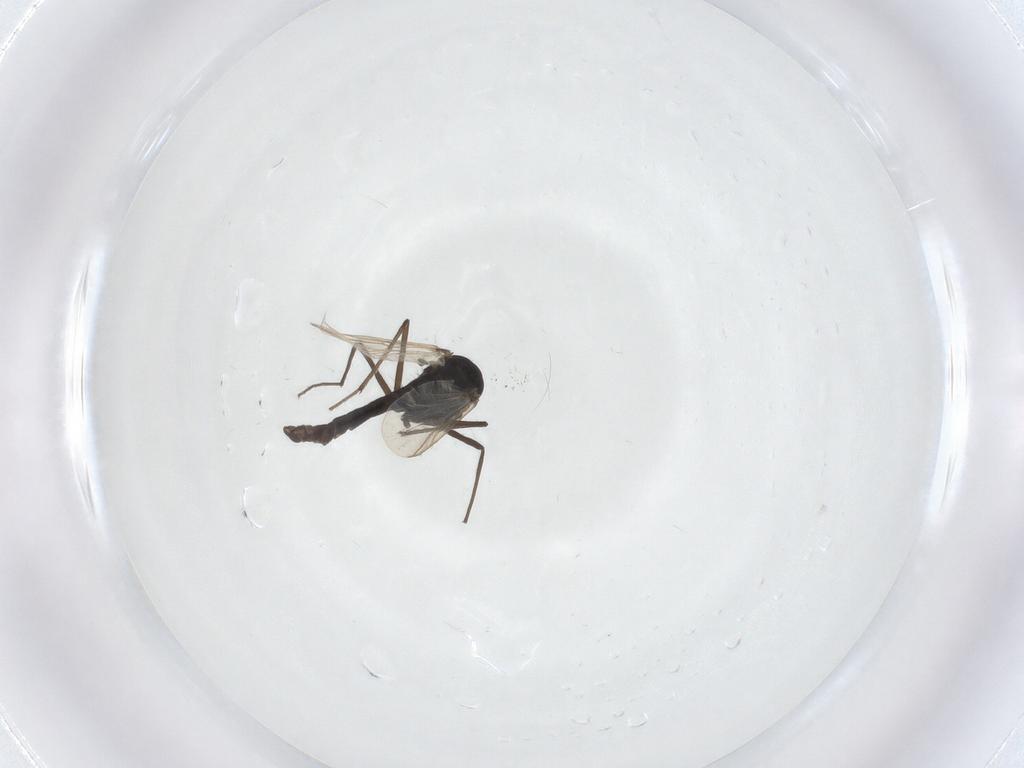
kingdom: Animalia
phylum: Arthropoda
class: Insecta
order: Diptera
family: Chironomidae
